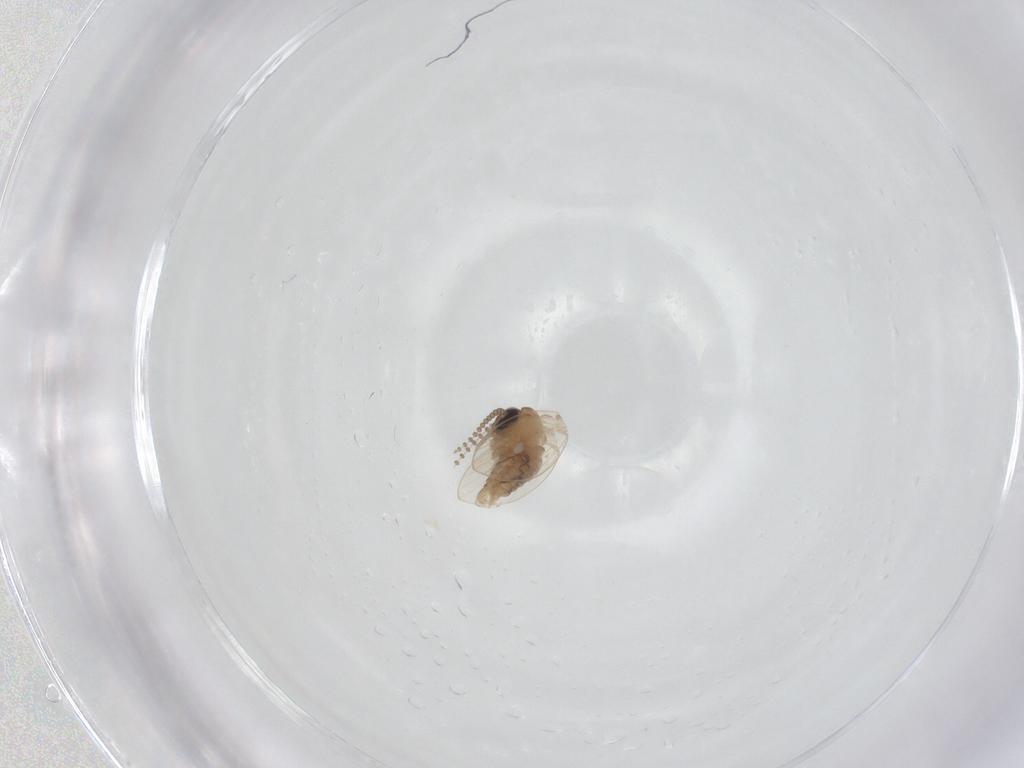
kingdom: Animalia
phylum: Arthropoda
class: Insecta
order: Diptera
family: Psychodidae
